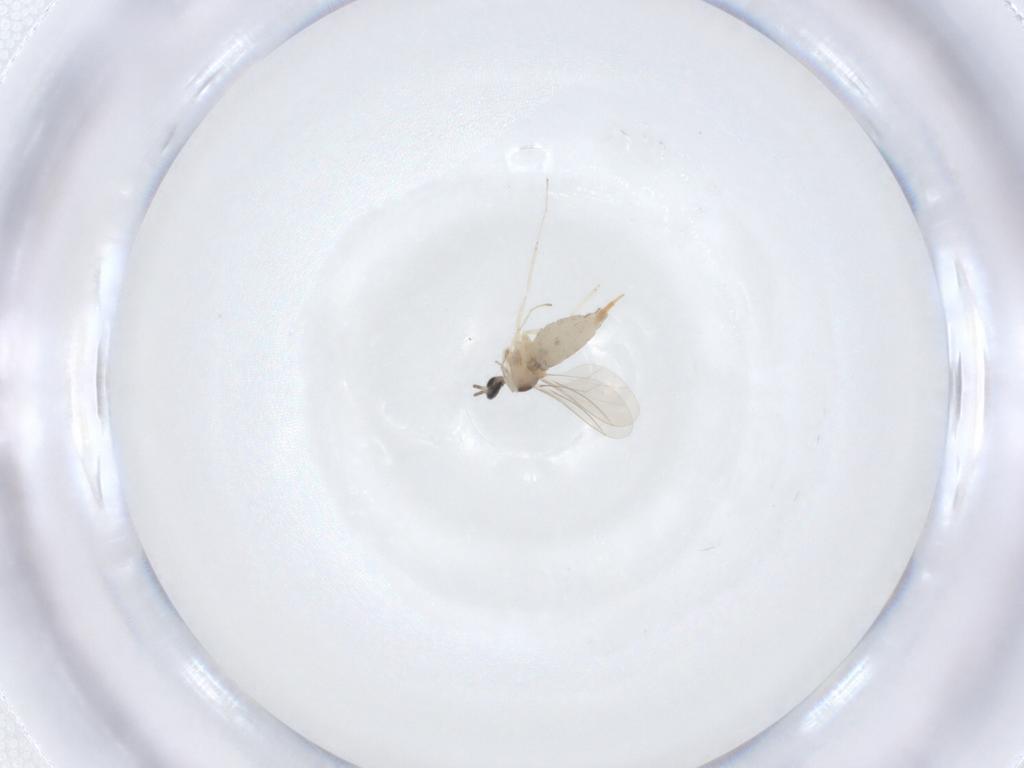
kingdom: Animalia
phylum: Arthropoda
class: Insecta
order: Diptera
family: Cecidomyiidae
